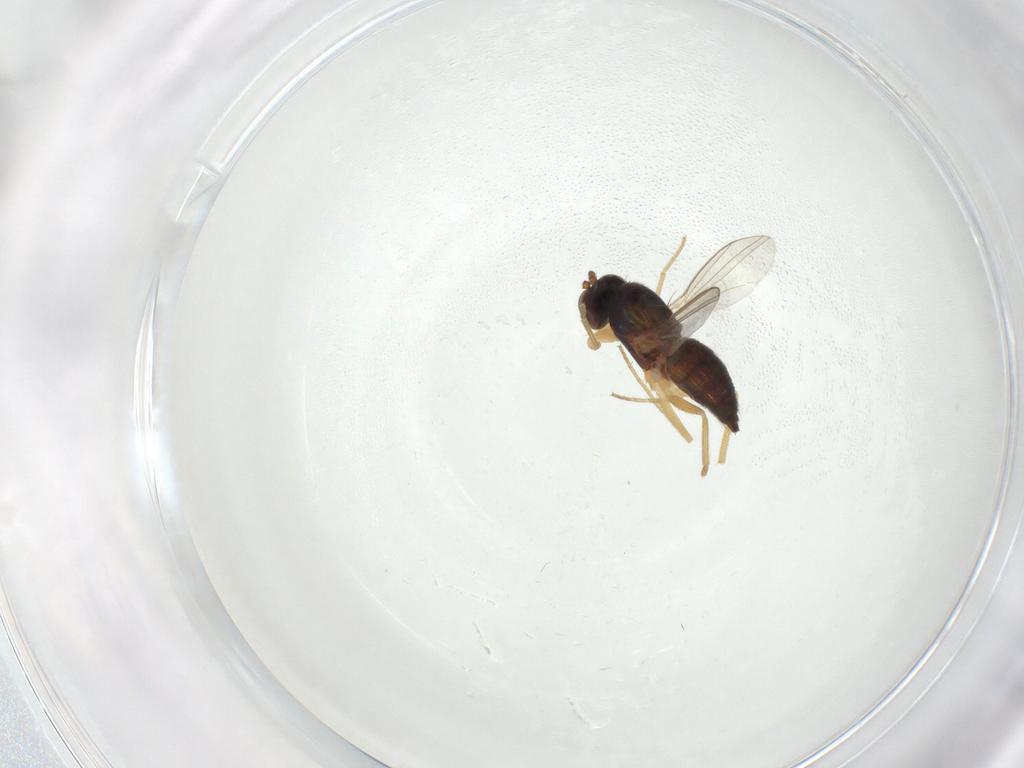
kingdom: Animalia
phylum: Arthropoda
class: Insecta
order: Diptera
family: Dolichopodidae
